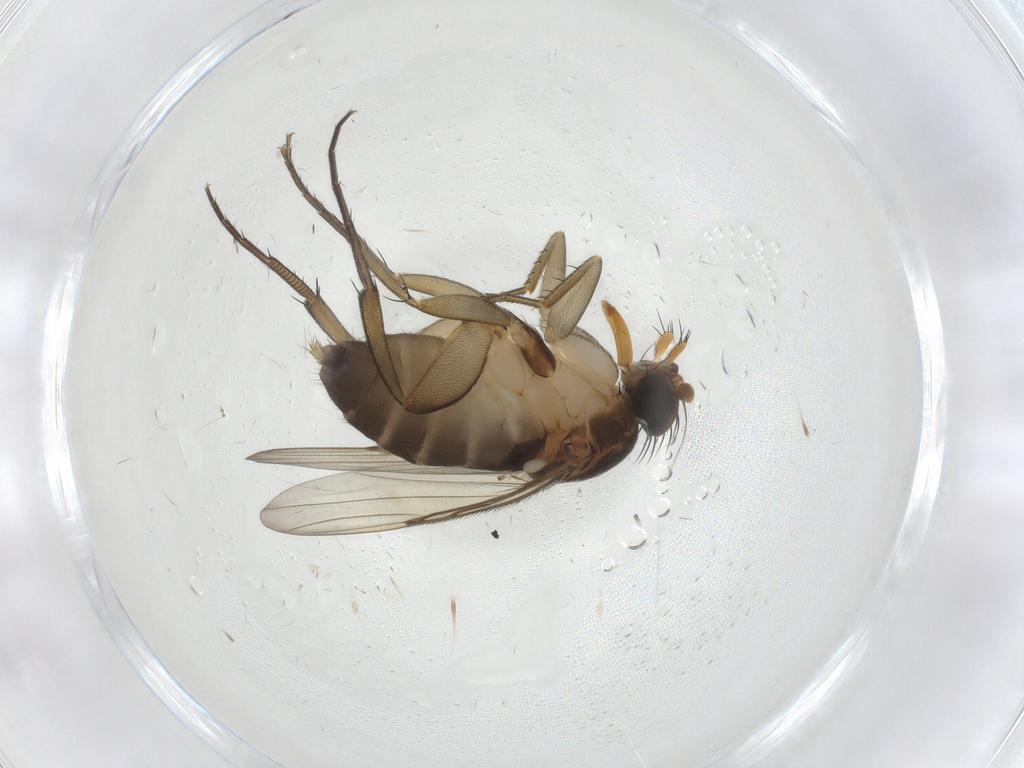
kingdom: Animalia
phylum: Arthropoda
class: Insecta
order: Diptera
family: Phoridae
